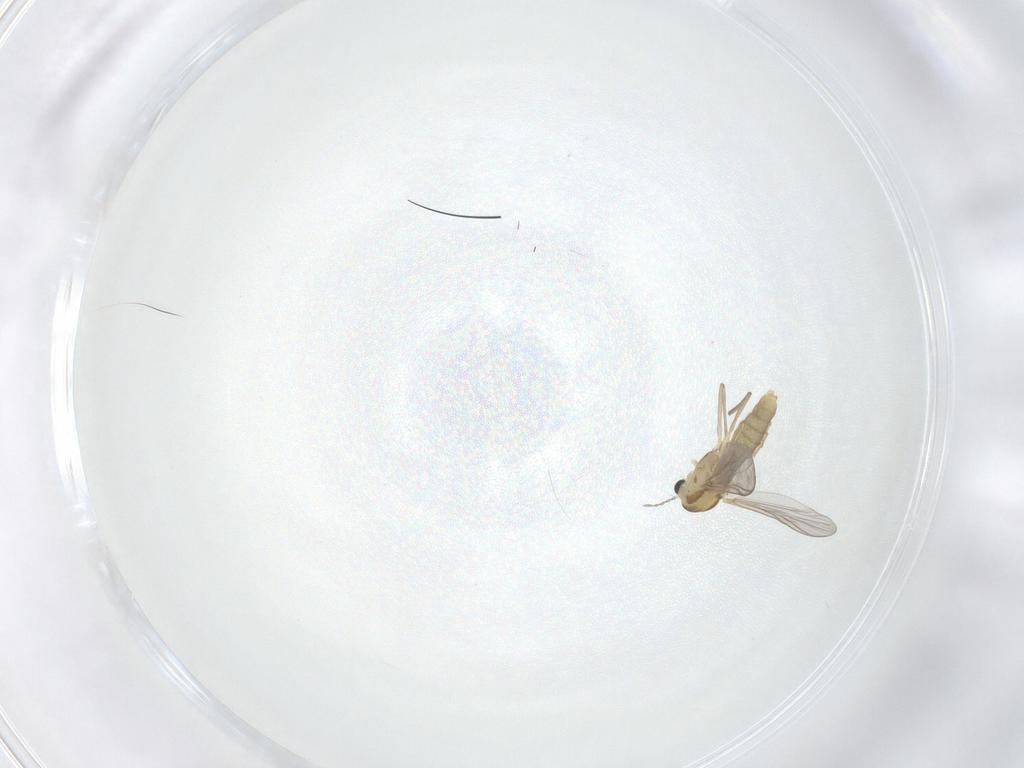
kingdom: Animalia
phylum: Arthropoda
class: Insecta
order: Diptera
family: Chironomidae
